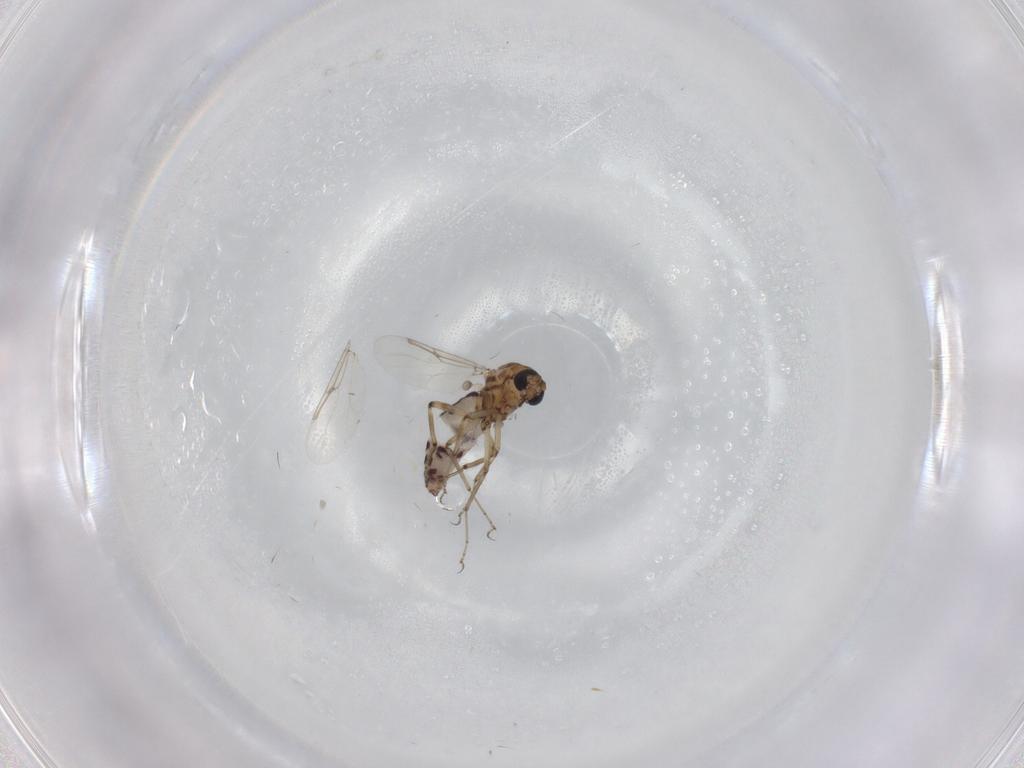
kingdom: Animalia
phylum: Arthropoda
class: Insecta
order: Diptera
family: Ceratopogonidae
